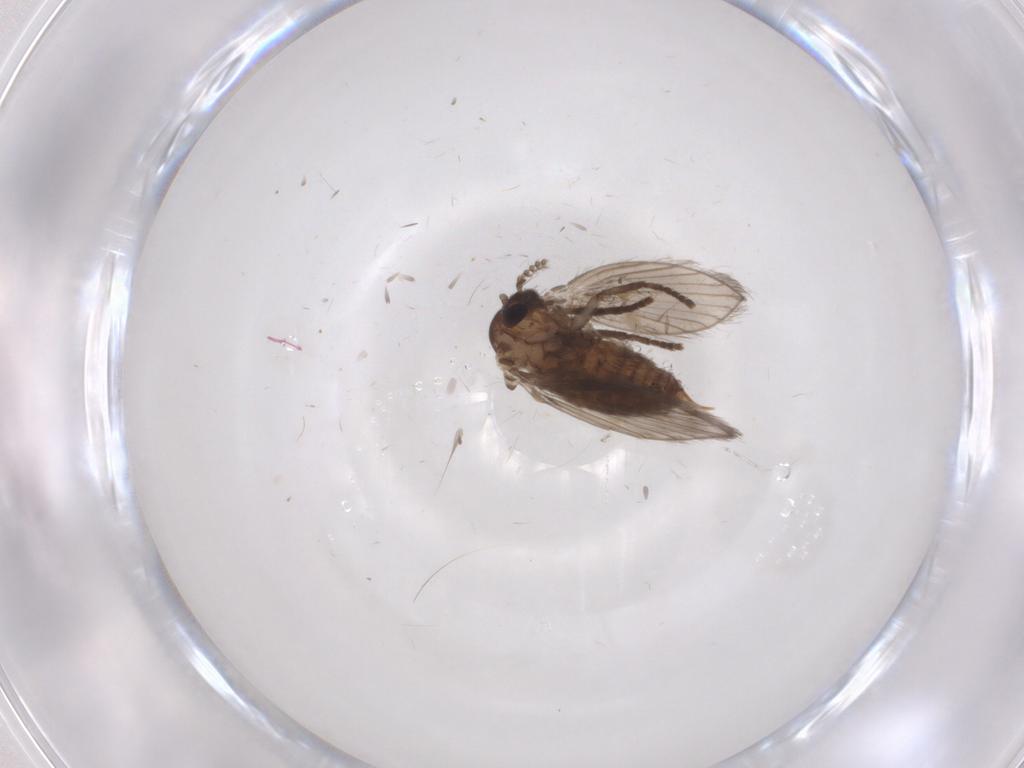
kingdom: Animalia
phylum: Arthropoda
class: Insecta
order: Diptera
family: Psychodidae
